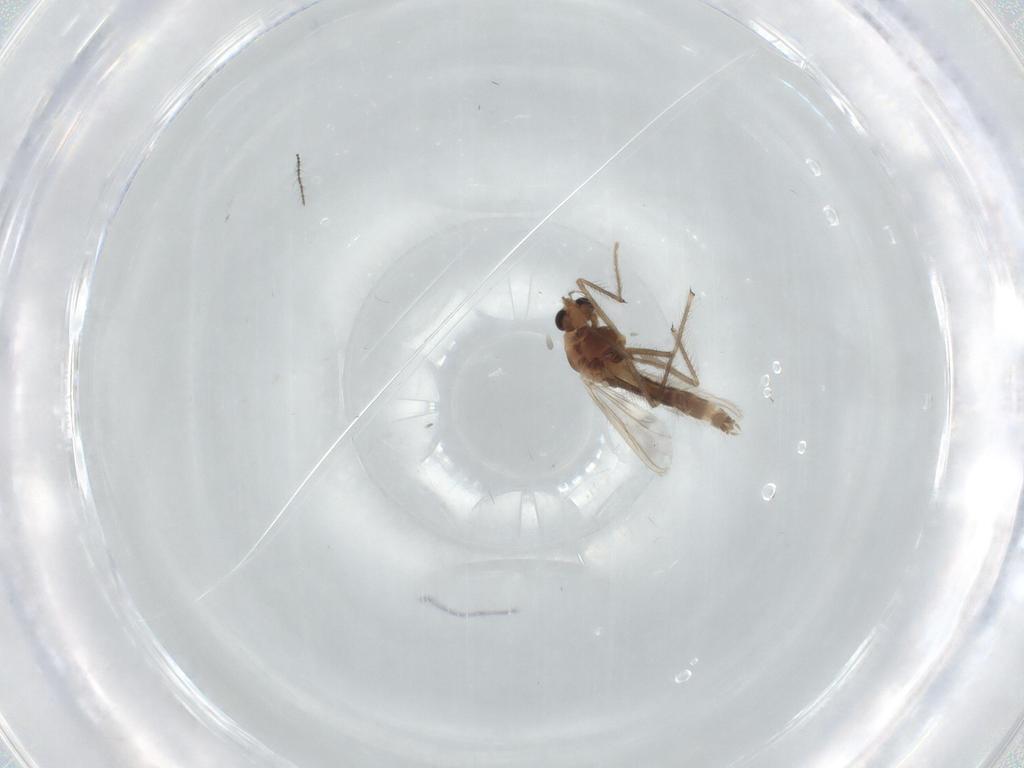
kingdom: Animalia
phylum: Arthropoda
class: Insecta
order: Diptera
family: Chironomidae
